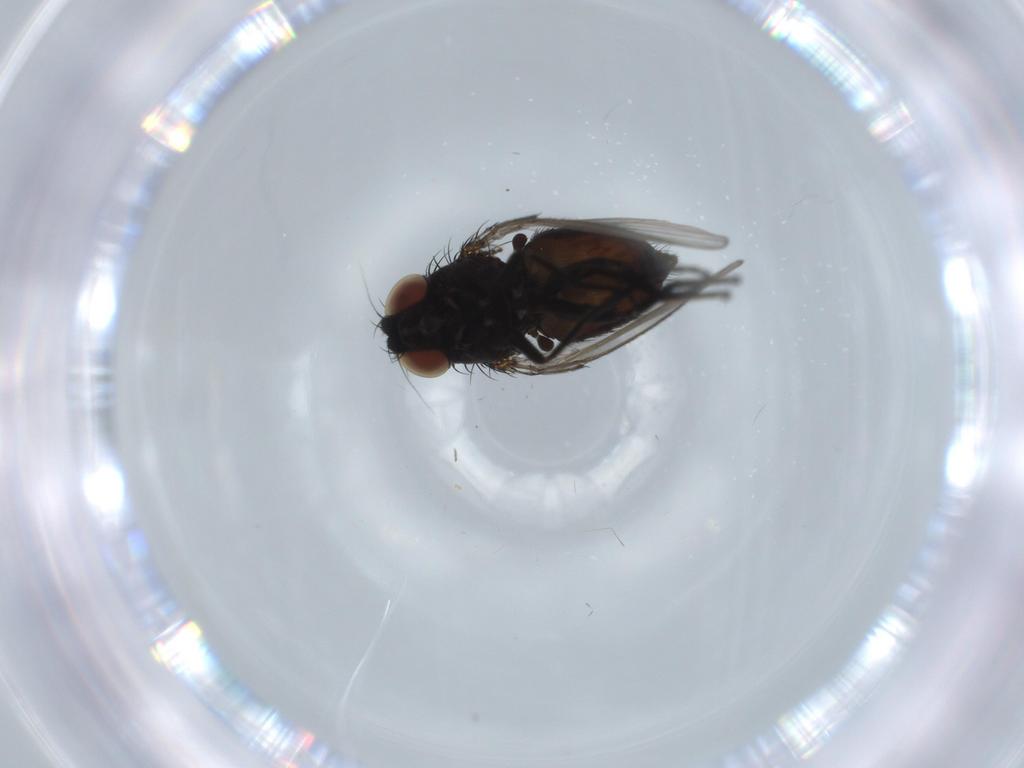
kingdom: Animalia
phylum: Arthropoda
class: Insecta
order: Diptera
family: Milichiidae
